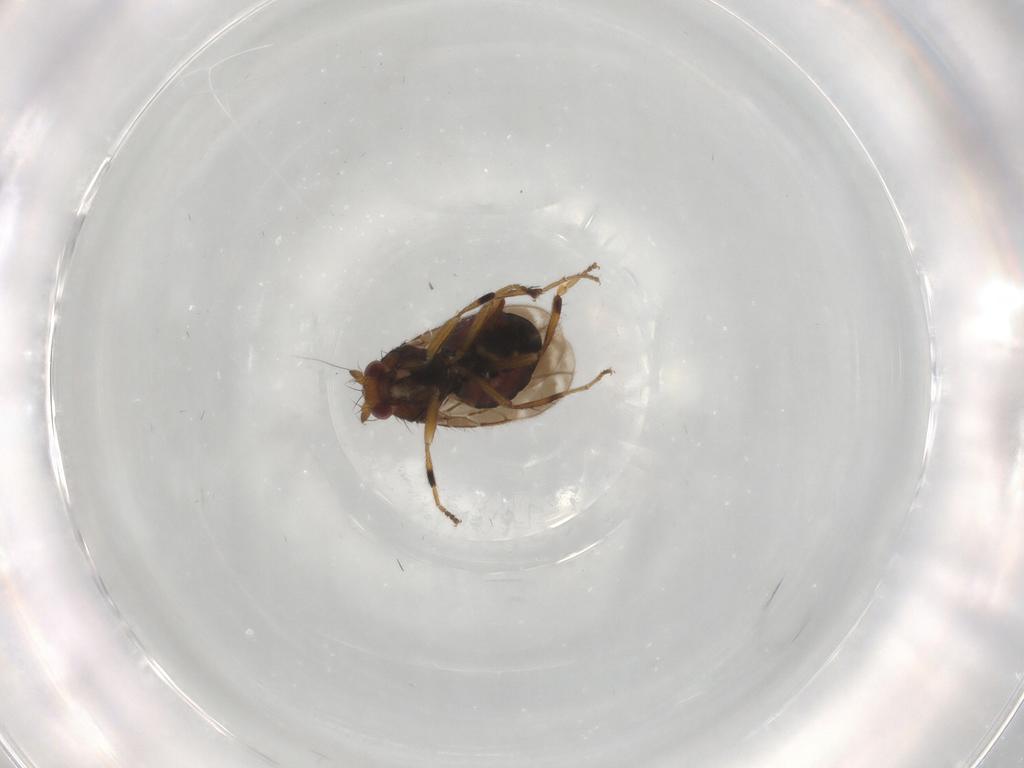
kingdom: Animalia
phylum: Arthropoda
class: Insecta
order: Diptera
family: Sphaeroceridae
